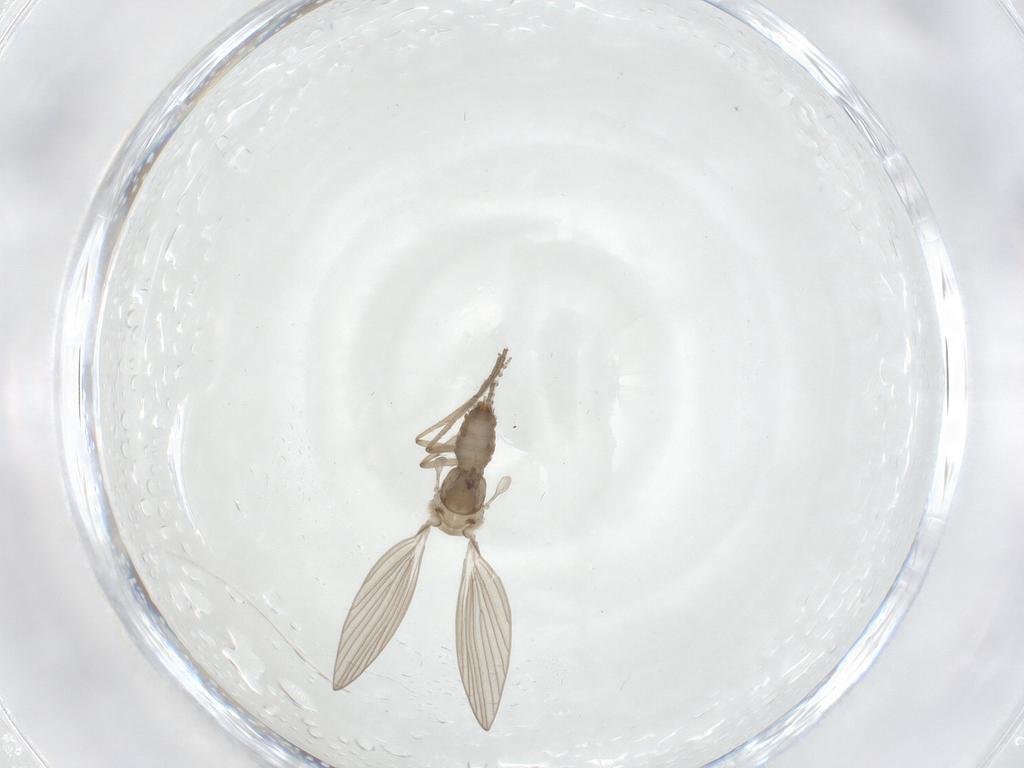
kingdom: Animalia
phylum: Arthropoda
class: Insecta
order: Diptera
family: Psychodidae
